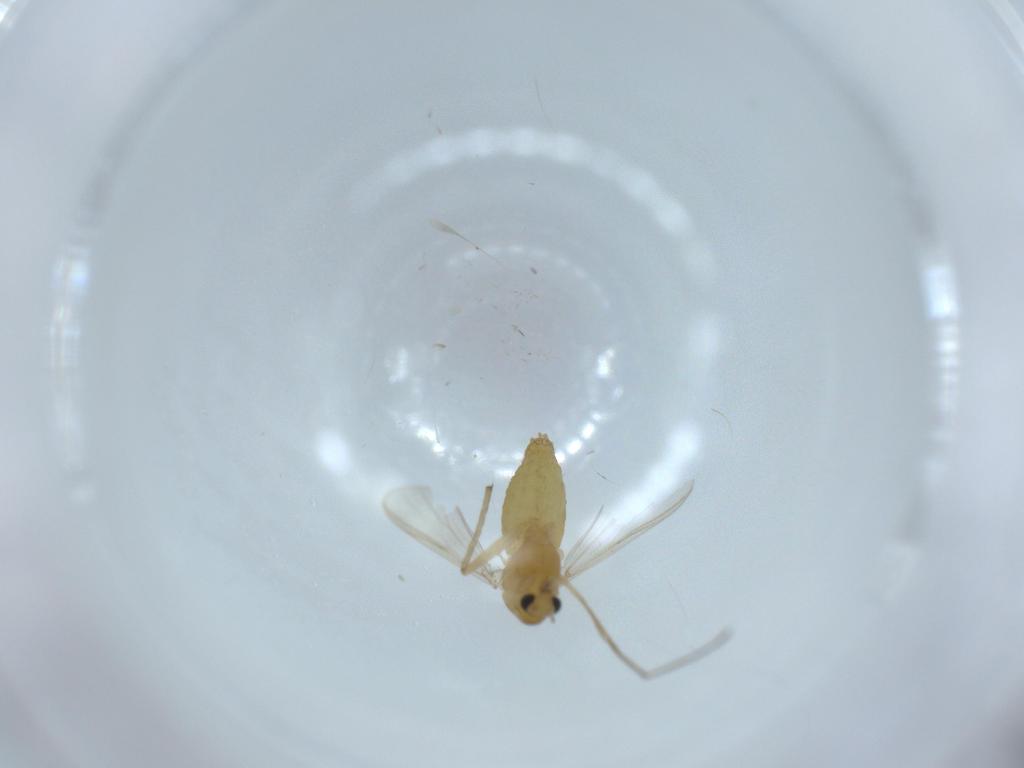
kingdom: Animalia
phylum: Arthropoda
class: Insecta
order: Diptera
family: Chironomidae
